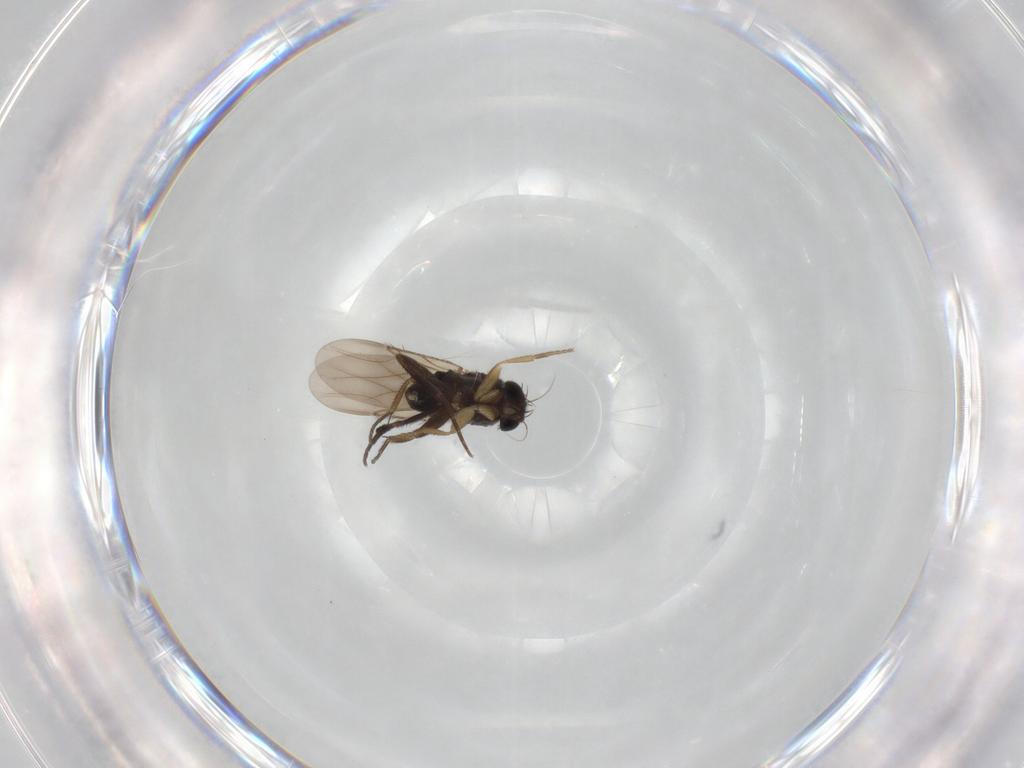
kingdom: Animalia
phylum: Arthropoda
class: Insecta
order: Diptera
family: Phoridae
